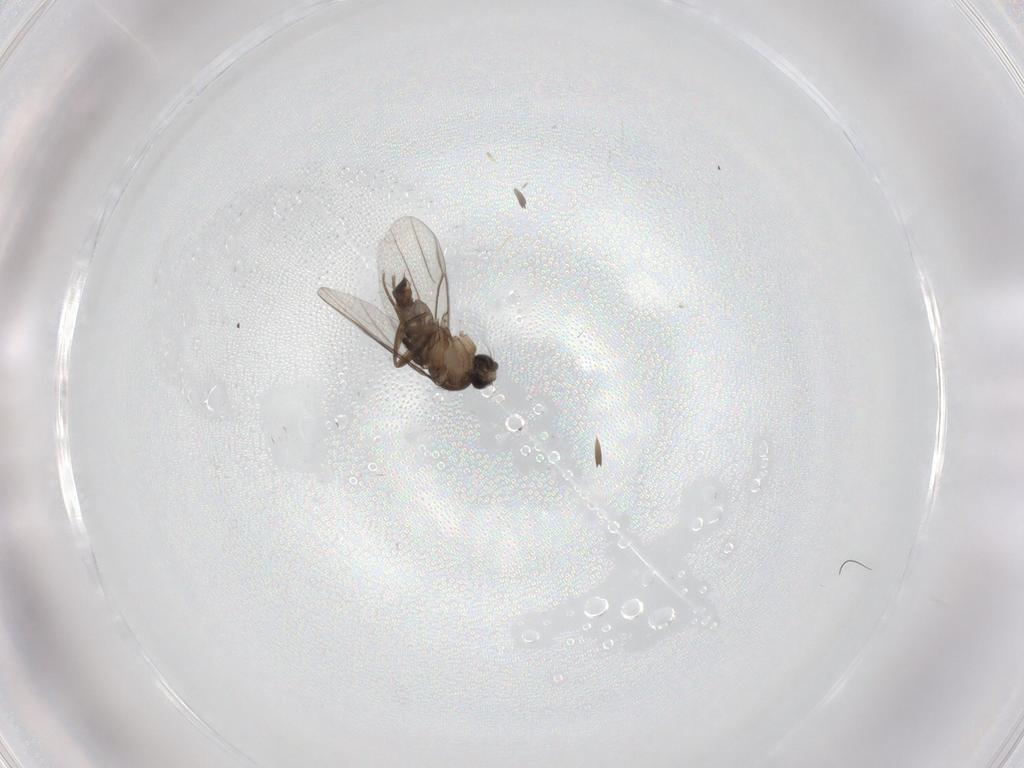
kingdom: Animalia
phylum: Arthropoda
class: Insecta
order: Diptera
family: Phoridae
